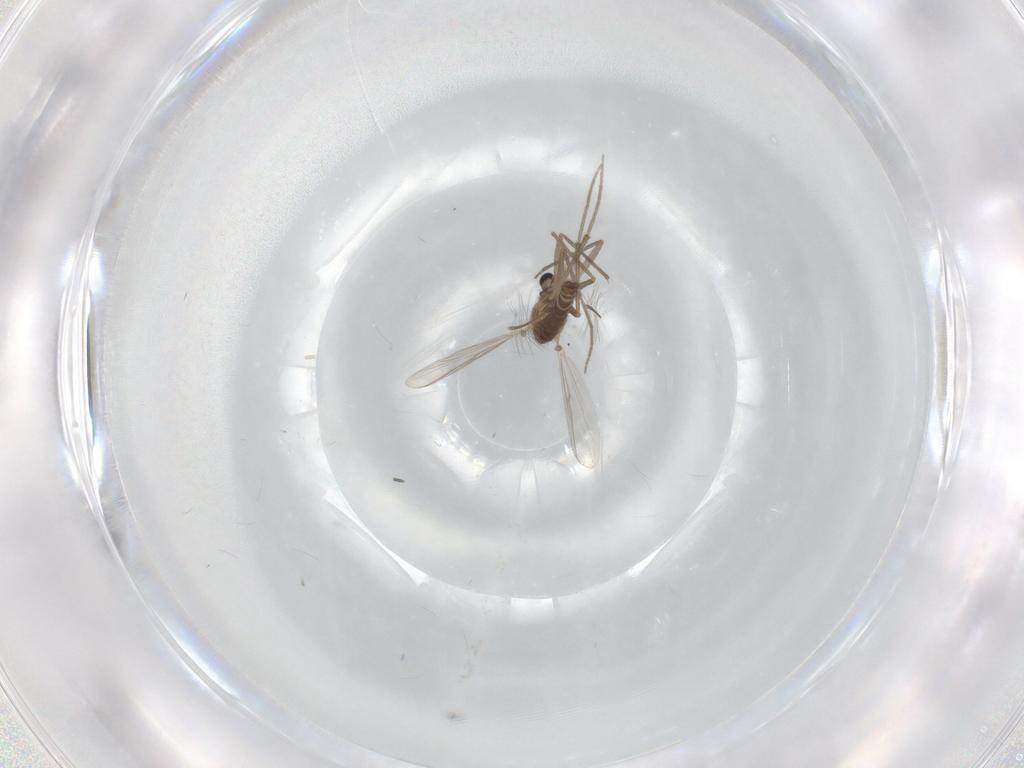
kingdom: Animalia
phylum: Arthropoda
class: Insecta
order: Diptera
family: Chironomidae
